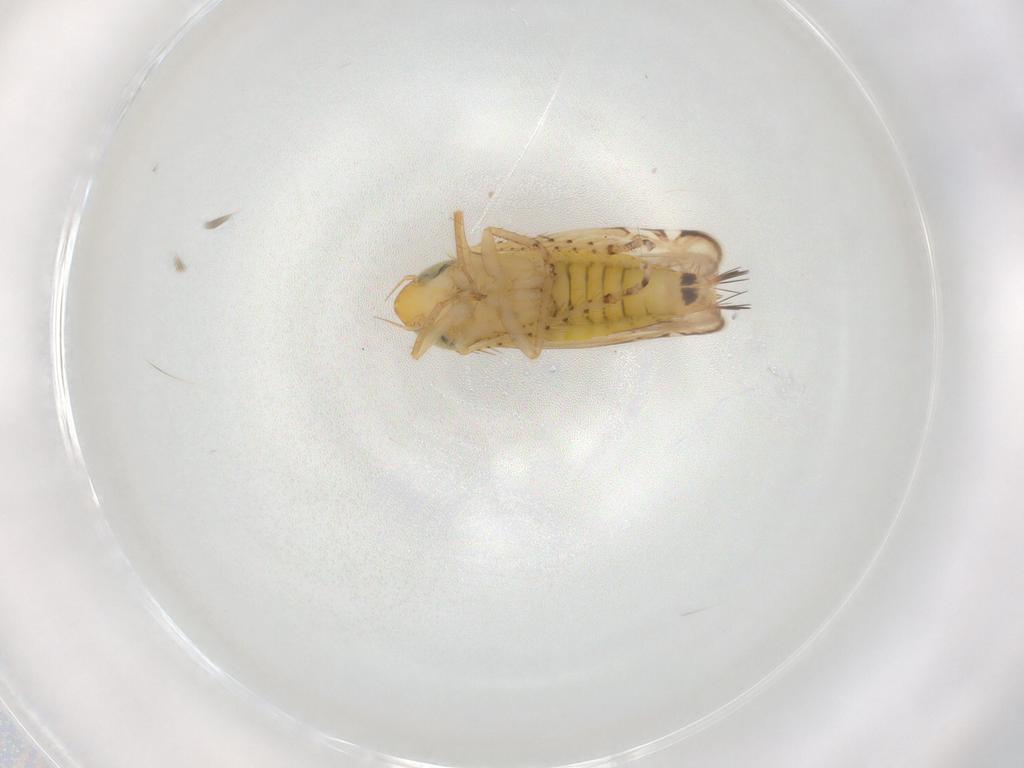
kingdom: Animalia
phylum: Arthropoda
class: Insecta
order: Hemiptera
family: Cicadellidae
